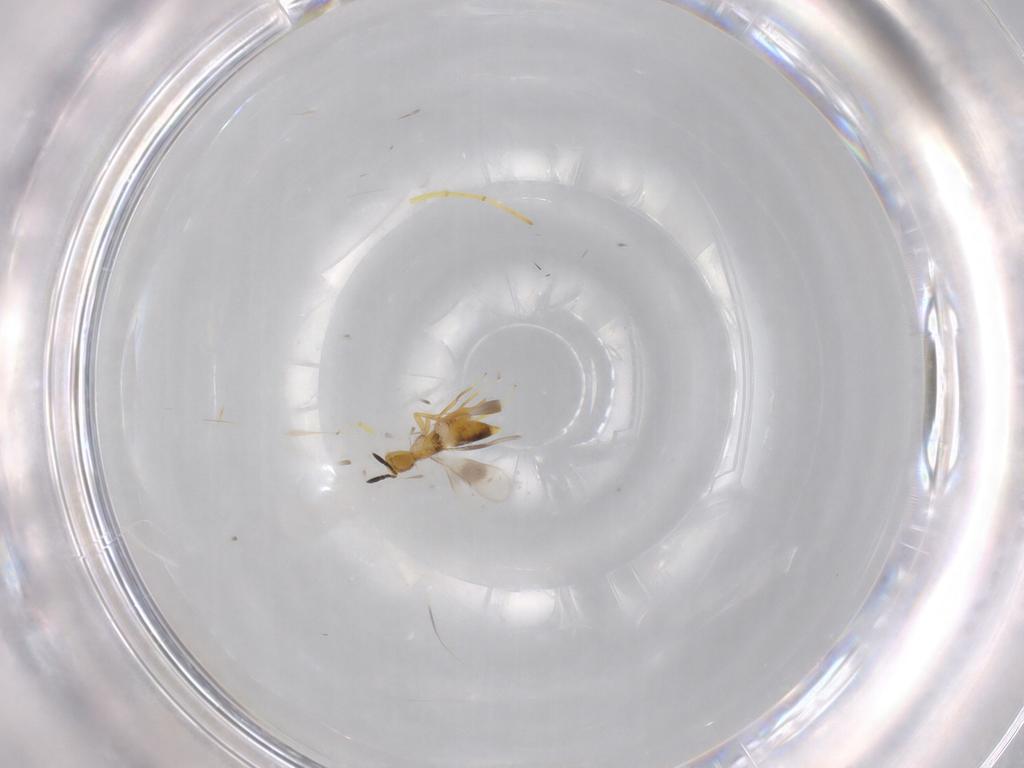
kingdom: Animalia
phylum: Arthropoda
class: Insecta
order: Hymenoptera
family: Encyrtidae
